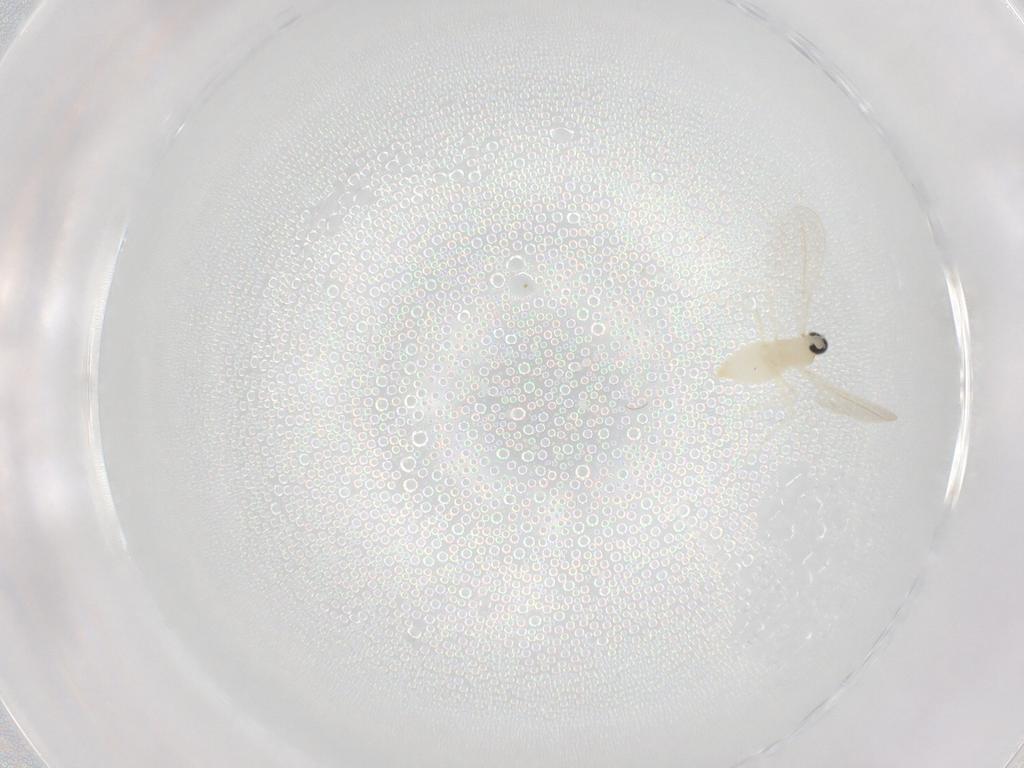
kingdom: Animalia
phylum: Arthropoda
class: Insecta
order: Diptera
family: Cecidomyiidae
